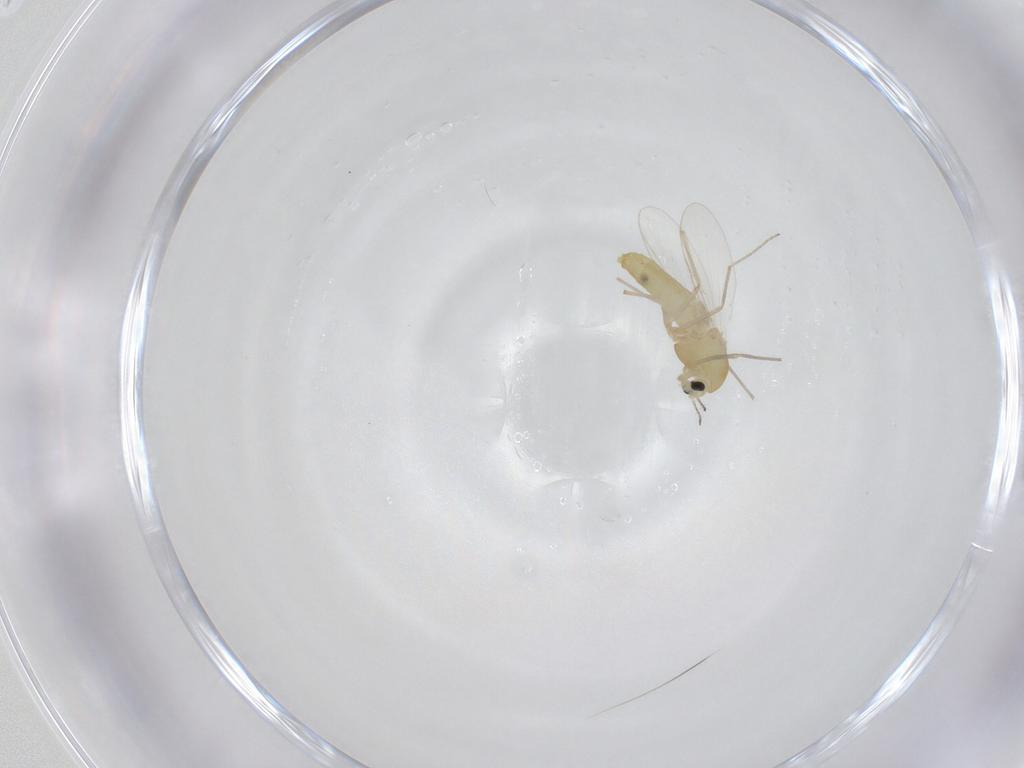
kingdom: Animalia
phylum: Arthropoda
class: Insecta
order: Diptera
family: Chironomidae
